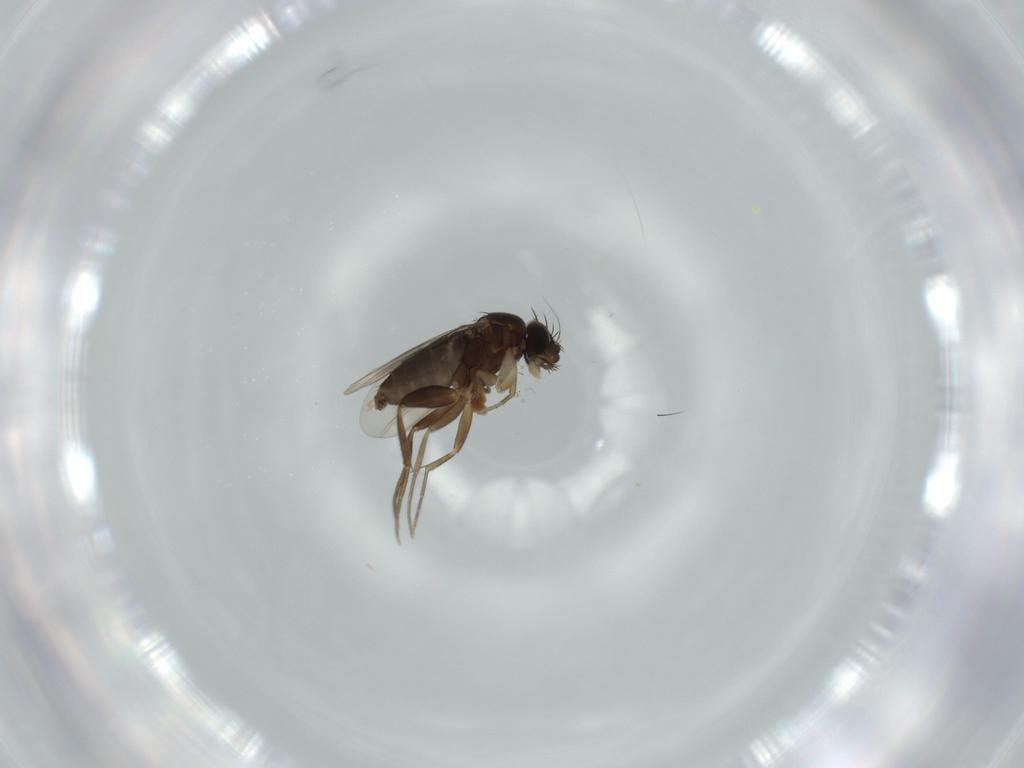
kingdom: Animalia
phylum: Arthropoda
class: Insecta
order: Diptera
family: Phoridae
